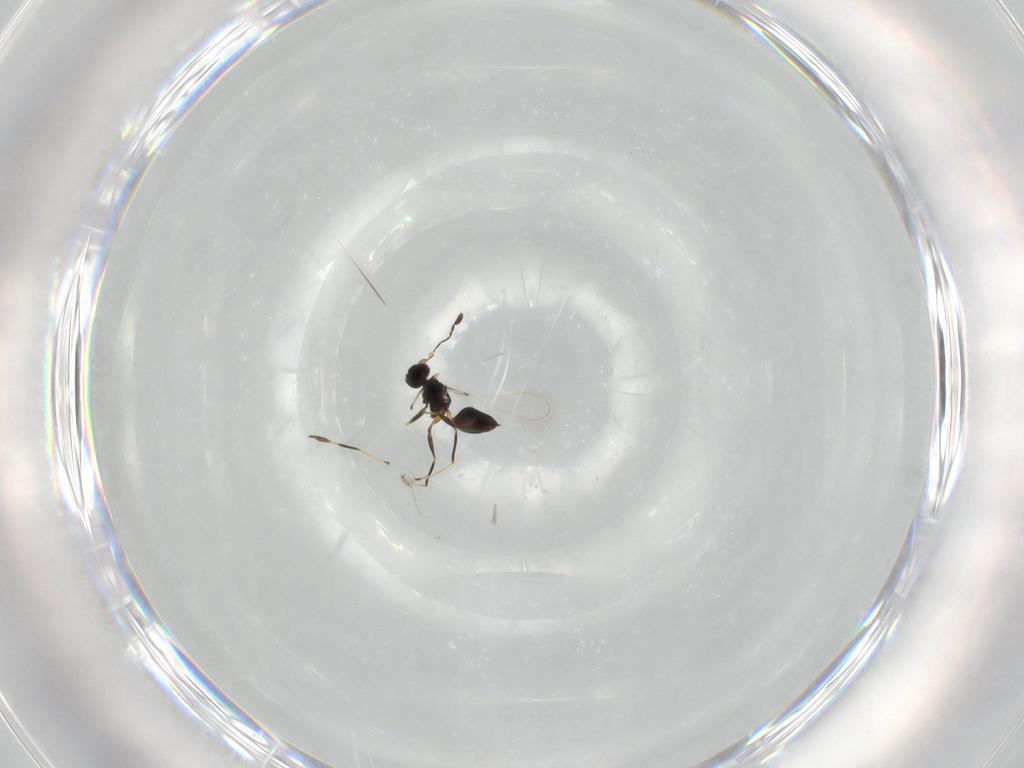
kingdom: Animalia
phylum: Arthropoda
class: Insecta
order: Hymenoptera
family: Mymaridae
